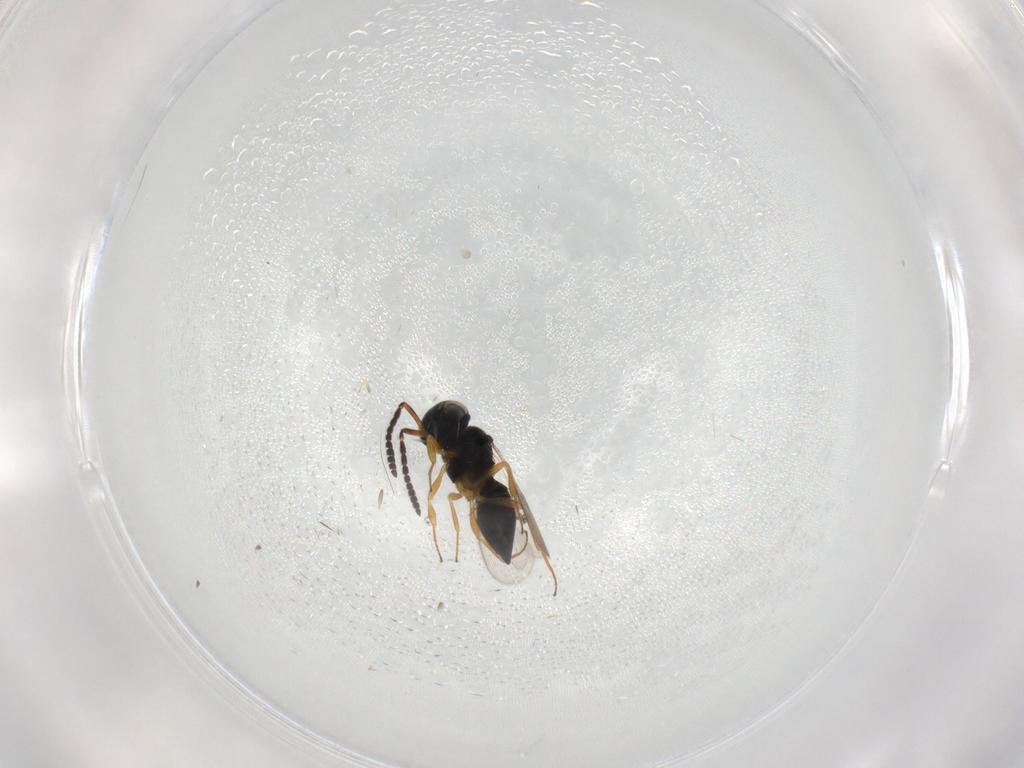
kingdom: Animalia
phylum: Arthropoda
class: Insecta
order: Hymenoptera
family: Scelionidae
